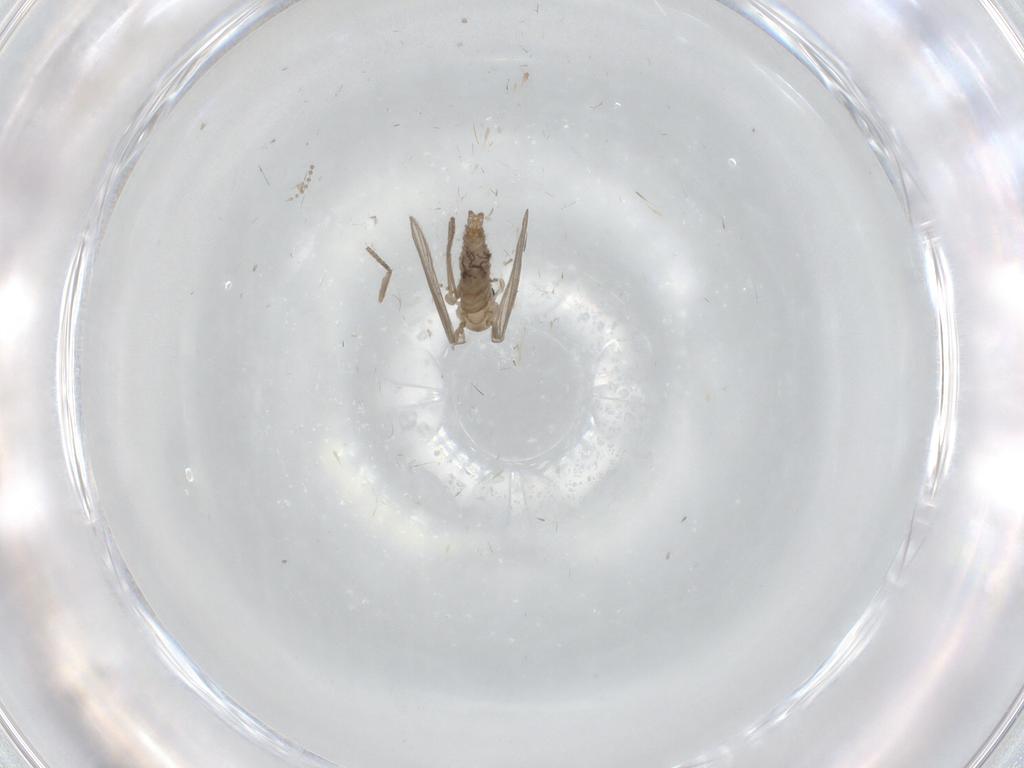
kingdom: Animalia
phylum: Arthropoda
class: Insecta
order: Diptera
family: Psychodidae
